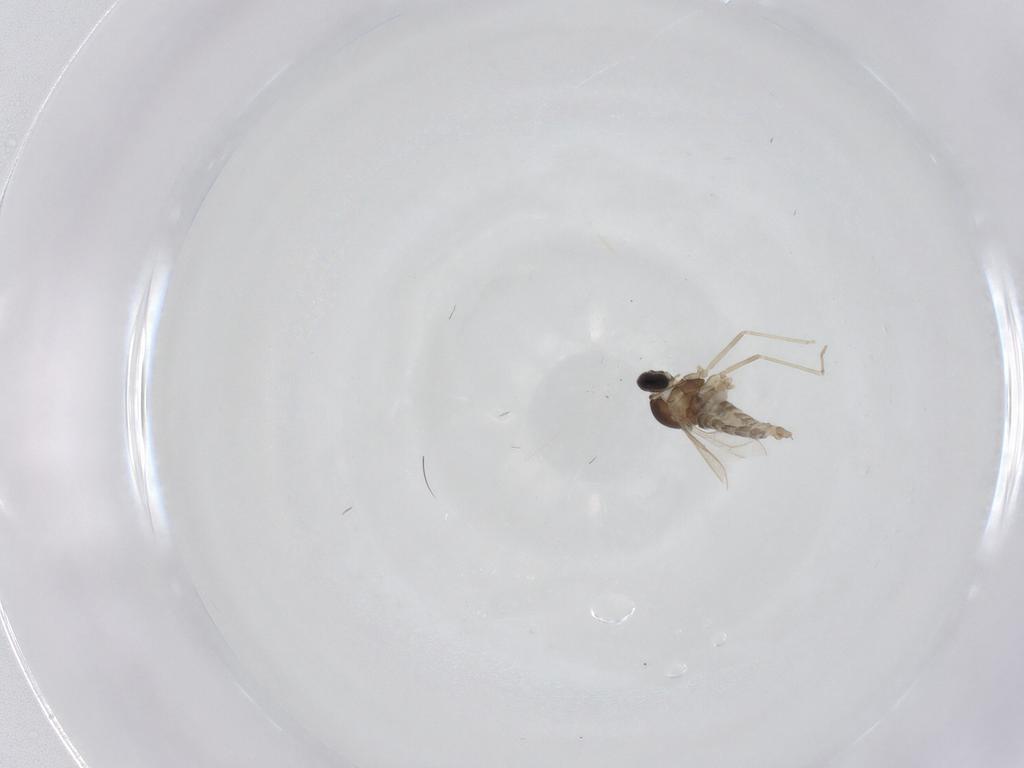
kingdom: Animalia
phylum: Arthropoda
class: Insecta
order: Diptera
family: Cecidomyiidae
